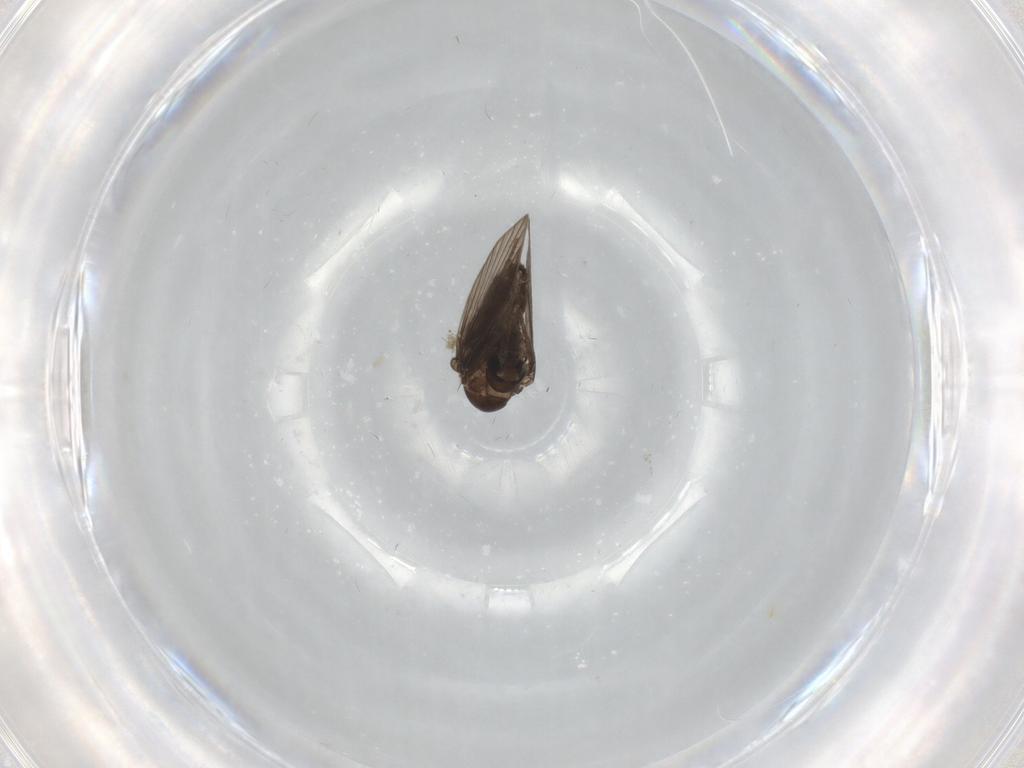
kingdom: Animalia
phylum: Arthropoda
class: Insecta
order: Diptera
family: Psychodidae
